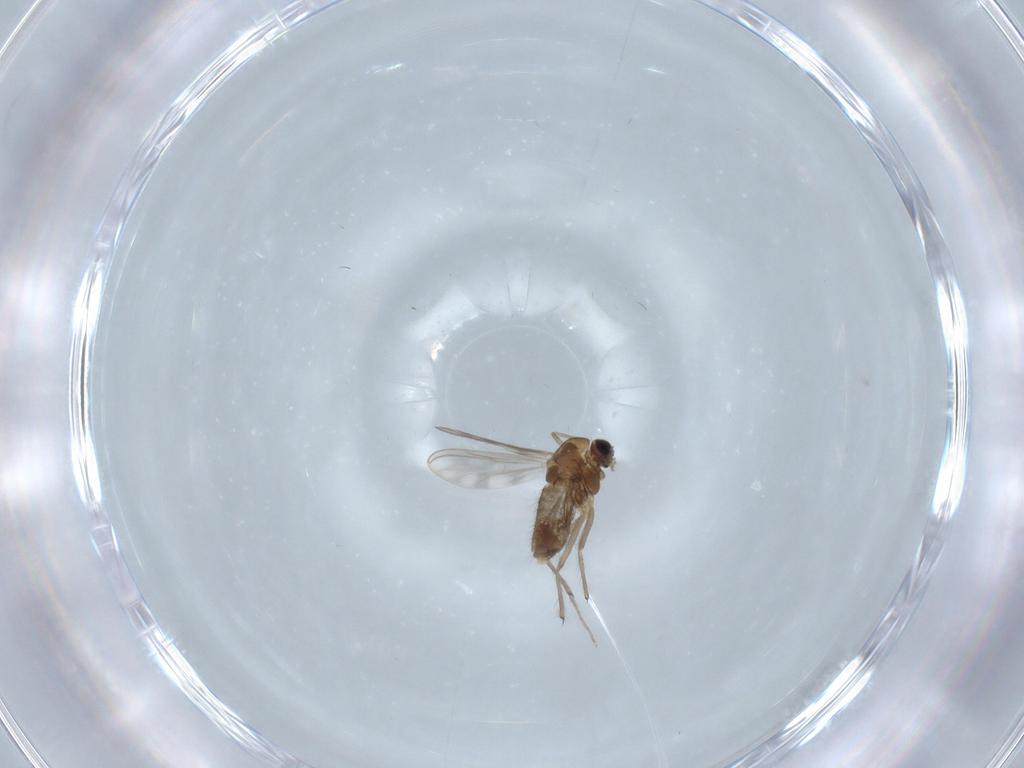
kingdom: Animalia
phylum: Arthropoda
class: Insecta
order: Diptera
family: Chironomidae
